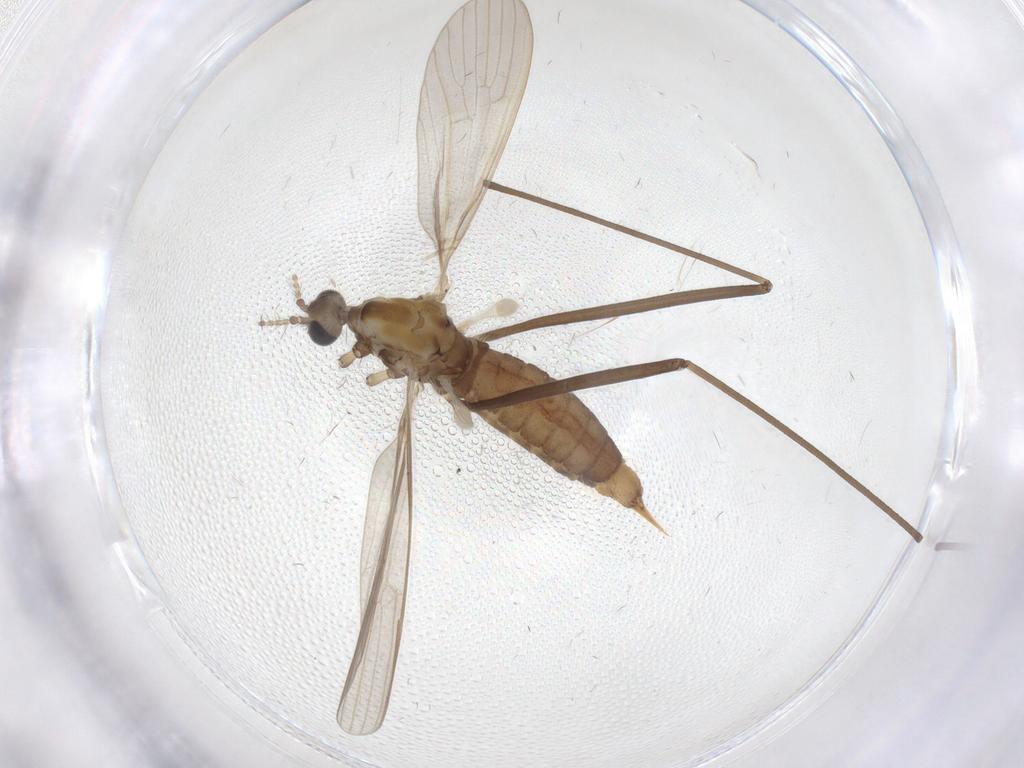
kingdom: Animalia
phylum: Arthropoda
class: Insecta
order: Diptera
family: Limoniidae
